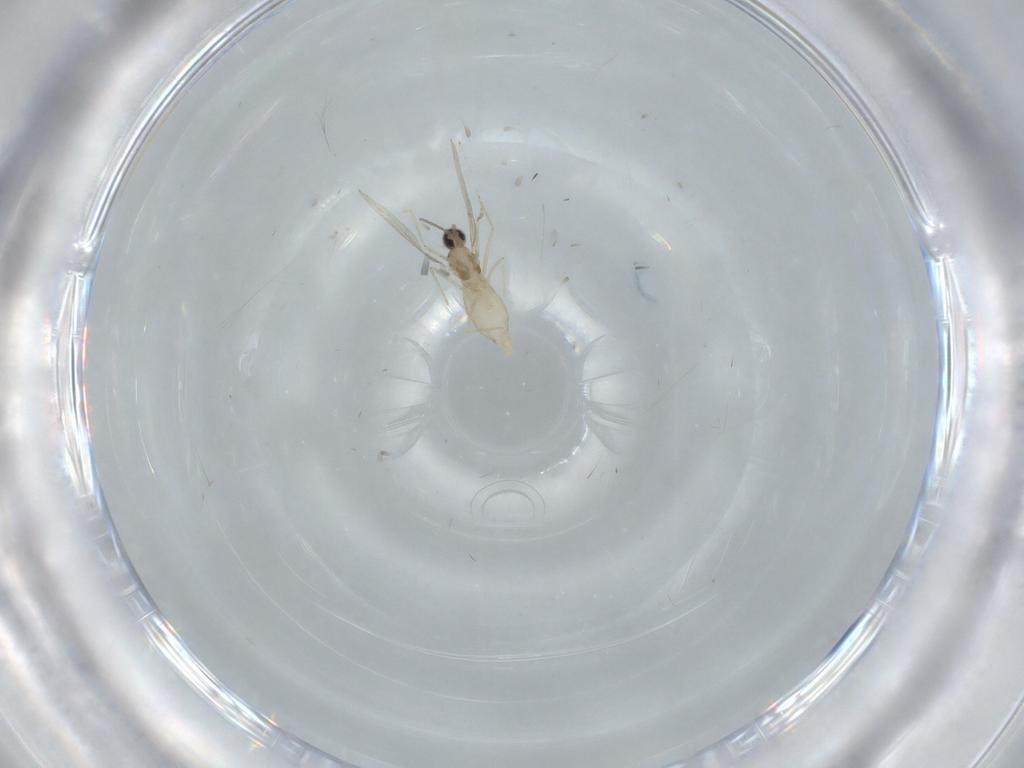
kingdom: Animalia
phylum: Arthropoda
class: Insecta
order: Diptera
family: Cecidomyiidae
